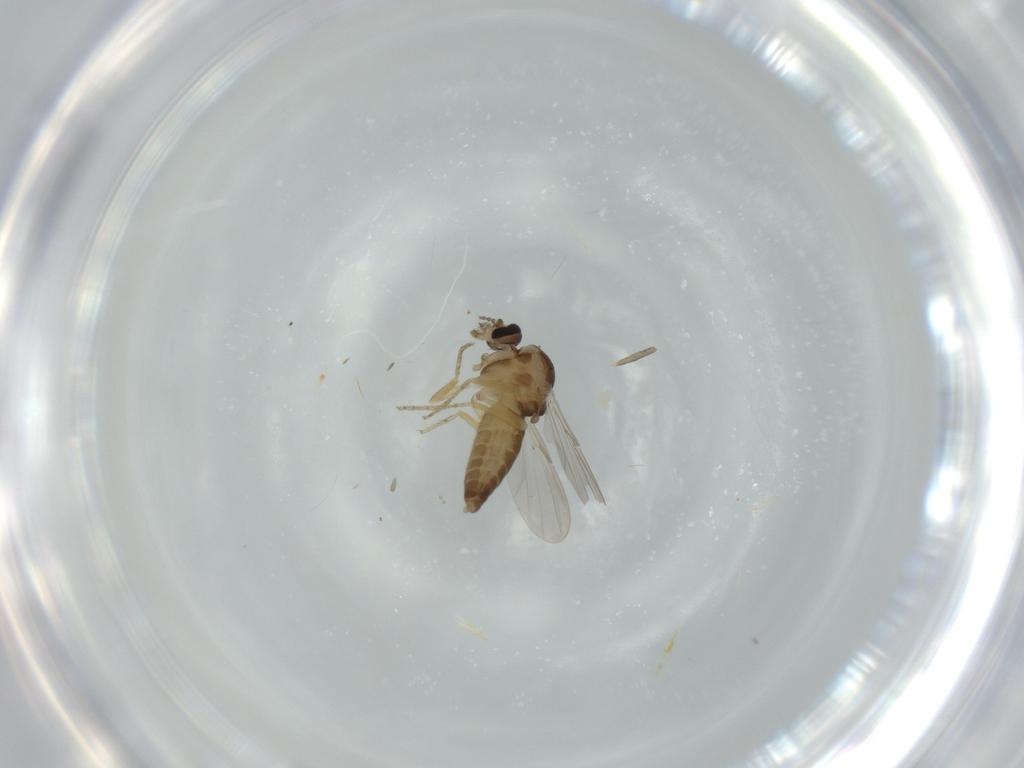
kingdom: Animalia
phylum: Arthropoda
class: Insecta
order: Diptera
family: Ceratopogonidae
